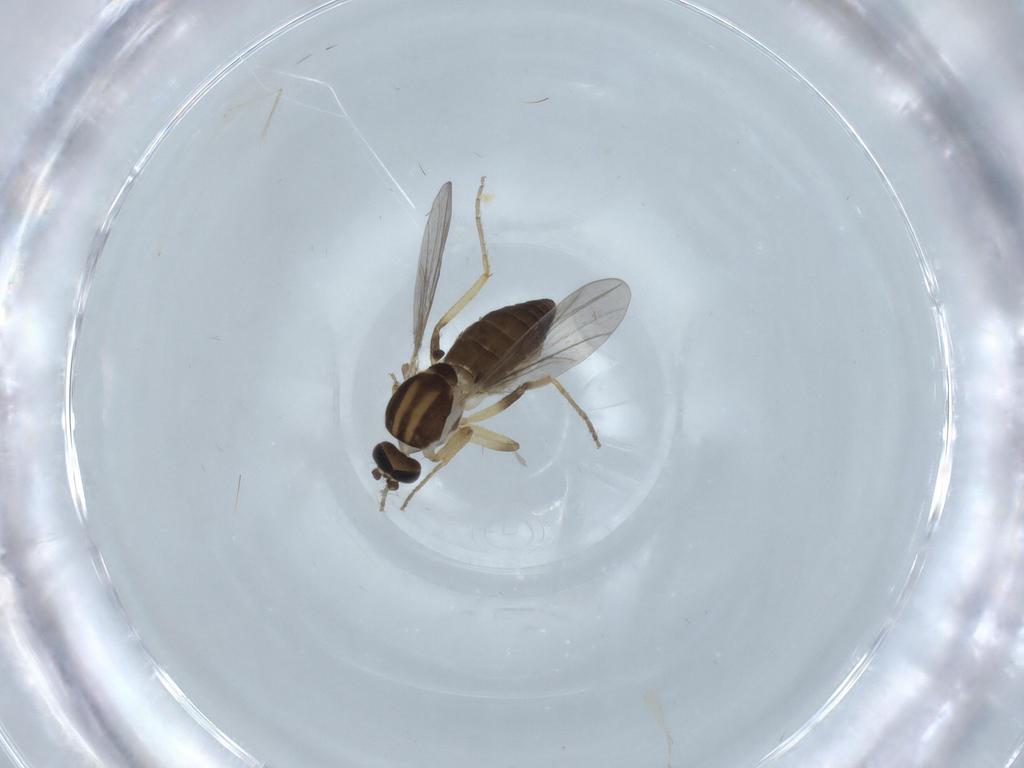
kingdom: Animalia
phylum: Arthropoda
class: Insecta
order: Diptera
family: Ceratopogonidae
